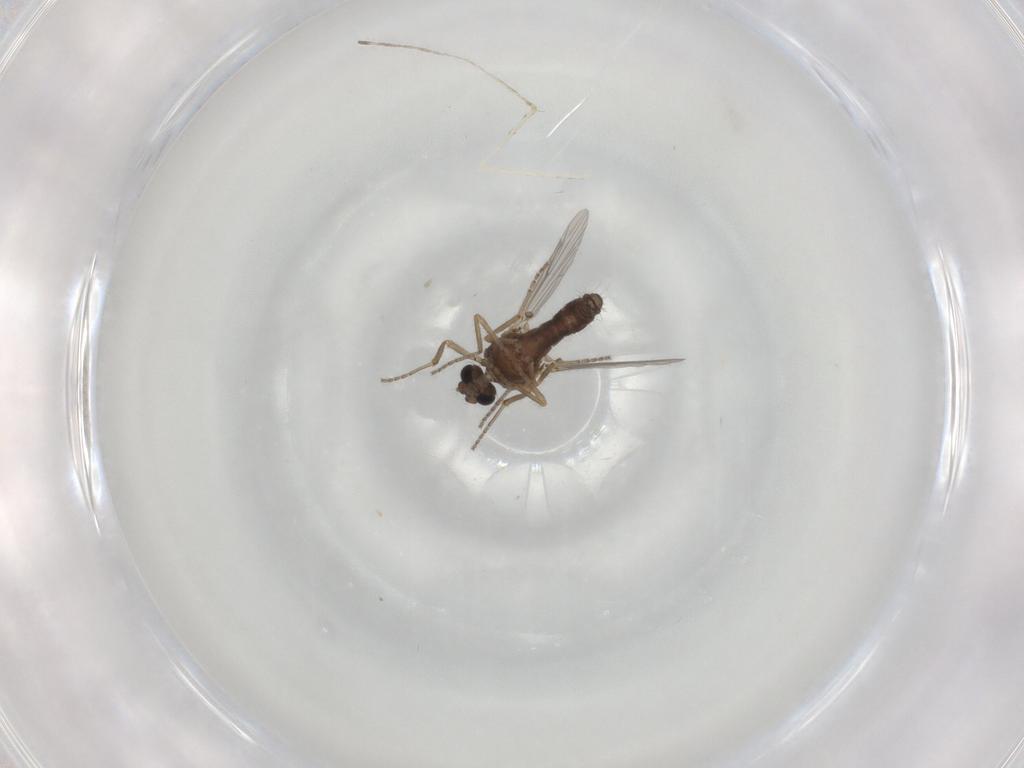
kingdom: Animalia
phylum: Arthropoda
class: Insecta
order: Diptera
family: Ceratopogonidae
